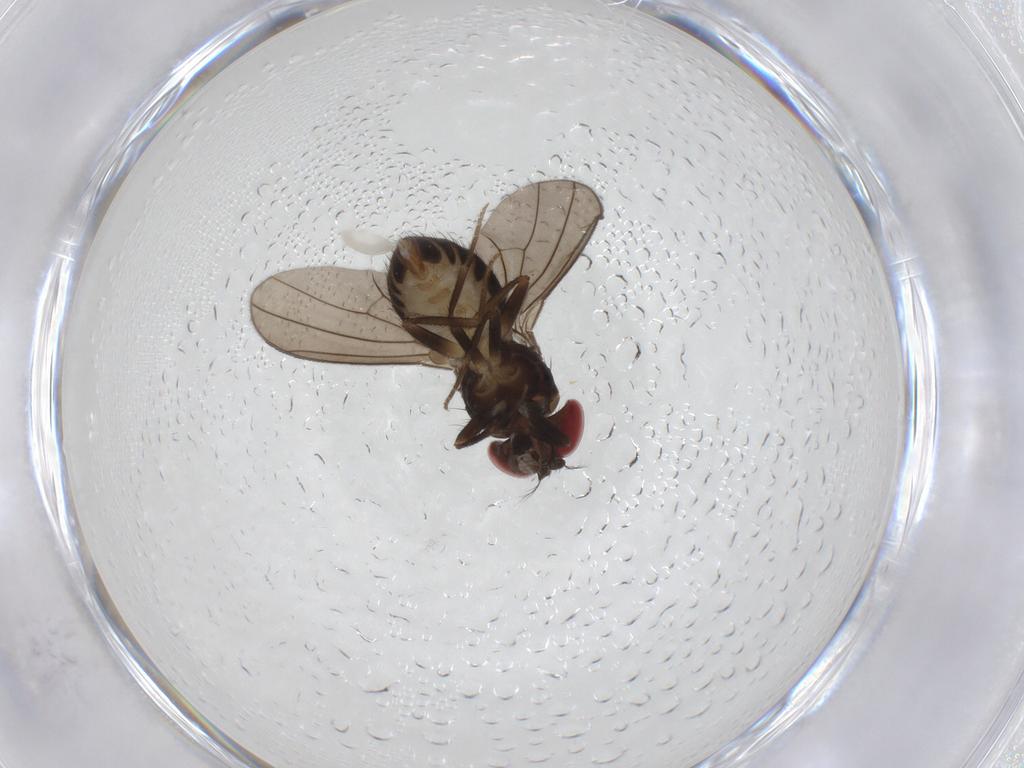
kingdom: Animalia
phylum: Arthropoda
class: Insecta
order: Diptera
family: Drosophilidae
